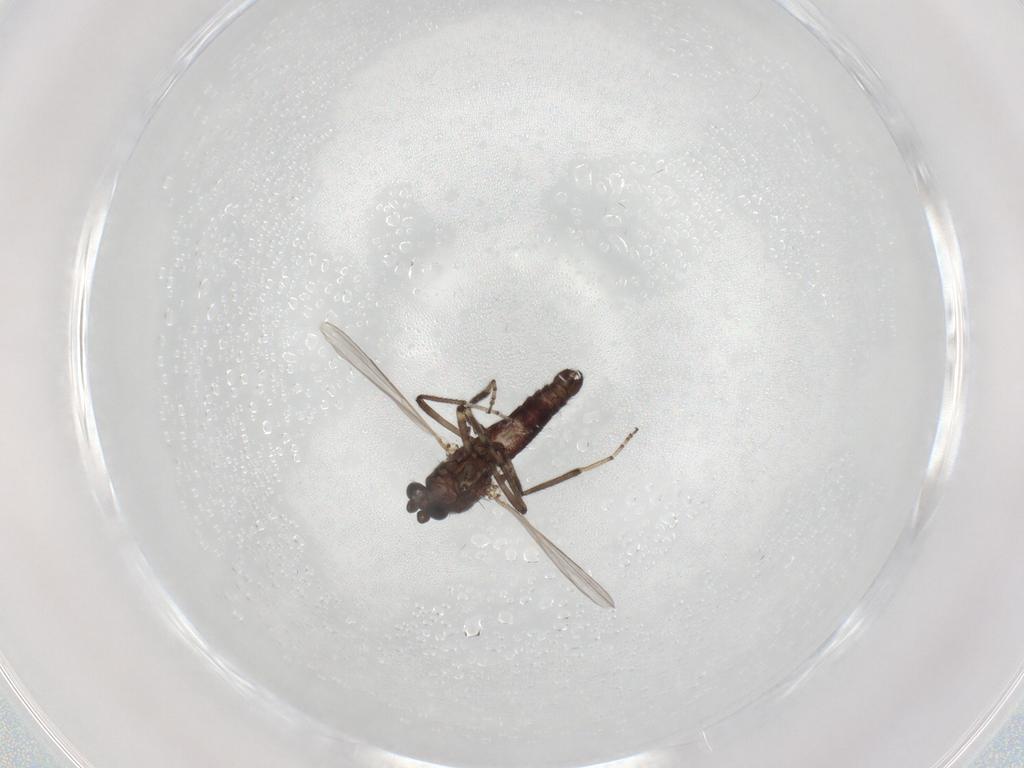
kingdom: Animalia
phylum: Arthropoda
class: Insecta
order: Diptera
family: Ceratopogonidae
